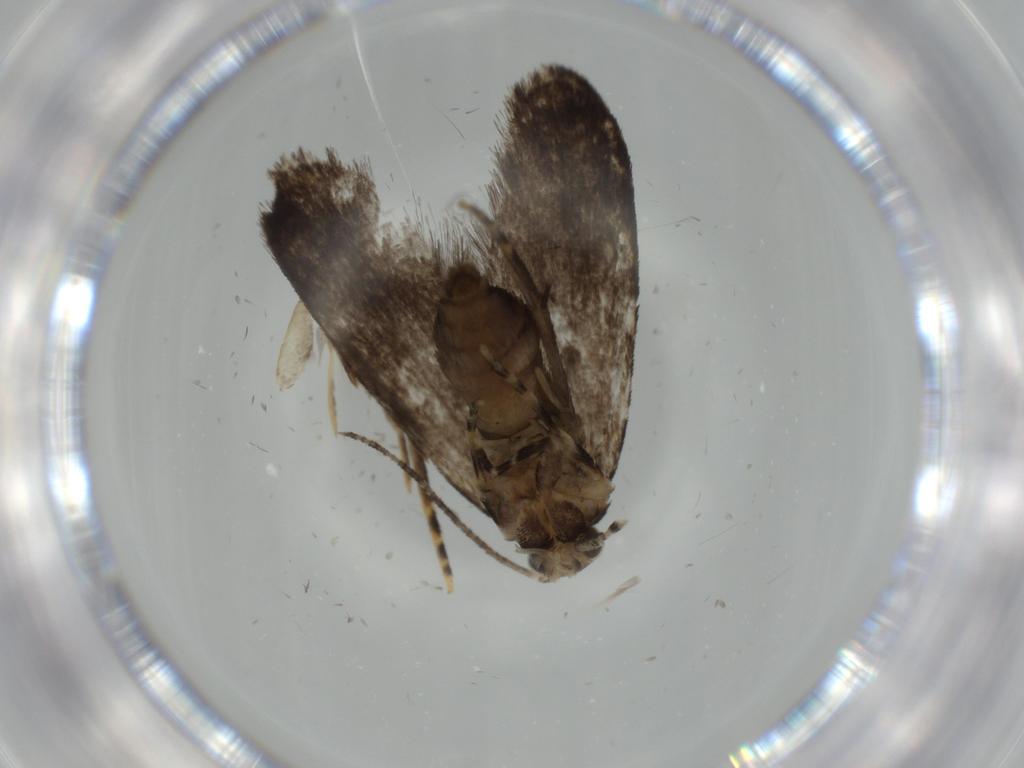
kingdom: Animalia
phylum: Arthropoda
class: Insecta
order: Lepidoptera
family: Tineidae
